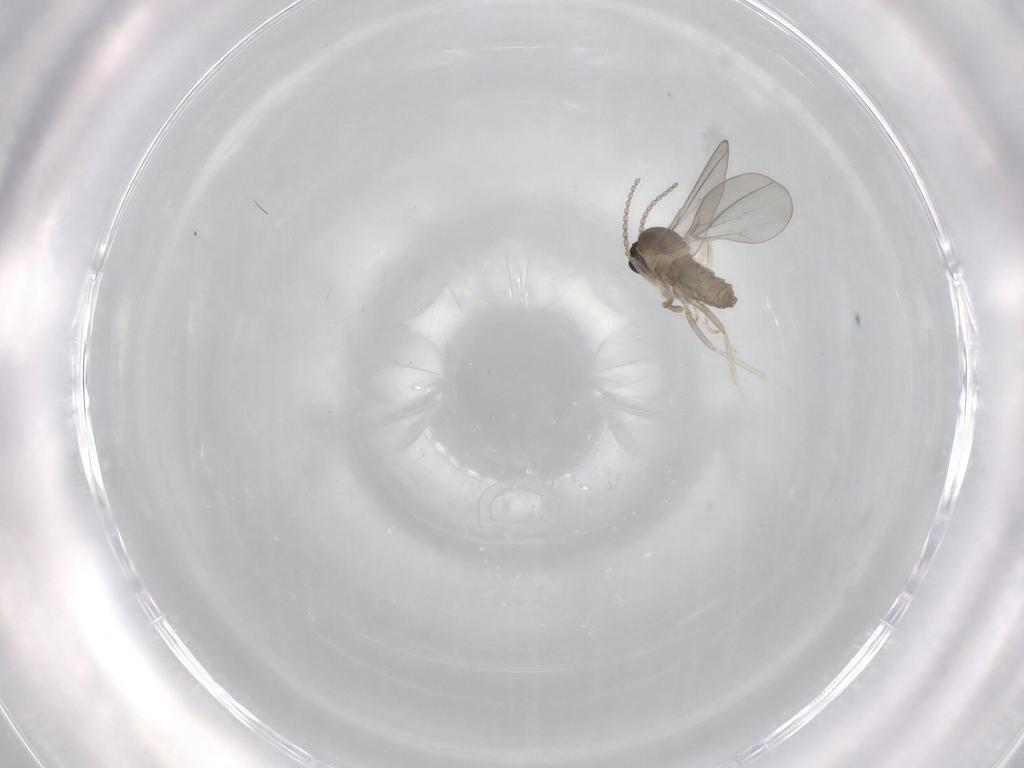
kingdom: Animalia
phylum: Arthropoda
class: Insecta
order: Diptera
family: Sciaridae
